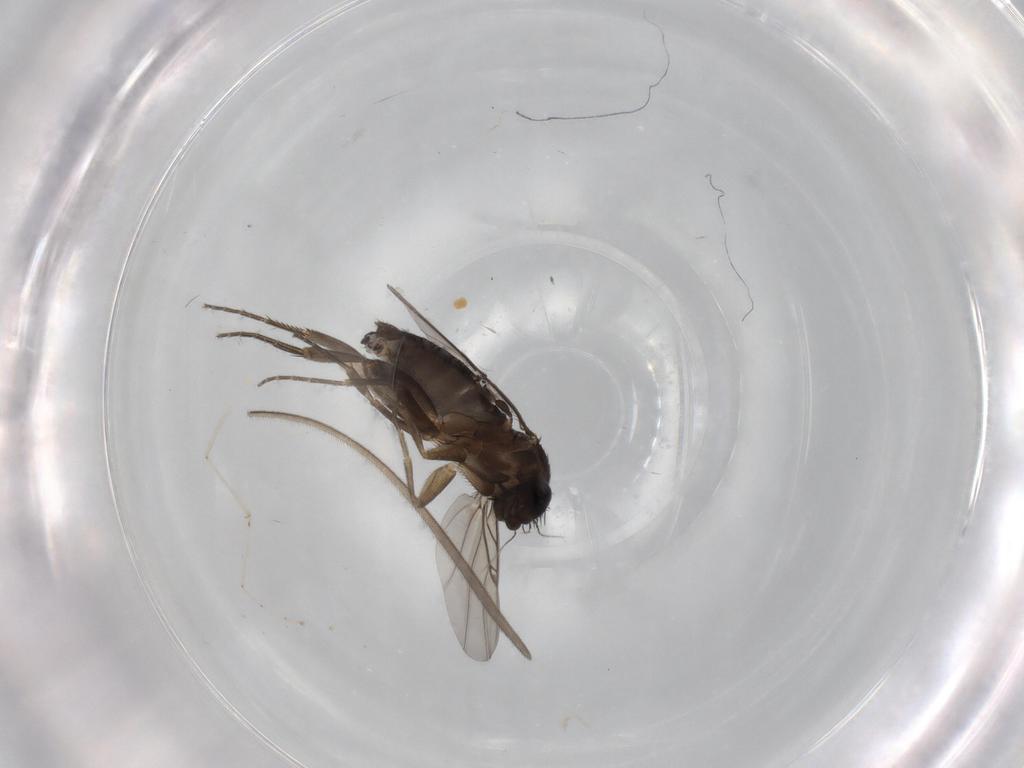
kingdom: Animalia
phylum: Arthropoda
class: Insecta
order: Diptera
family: Phoridae
